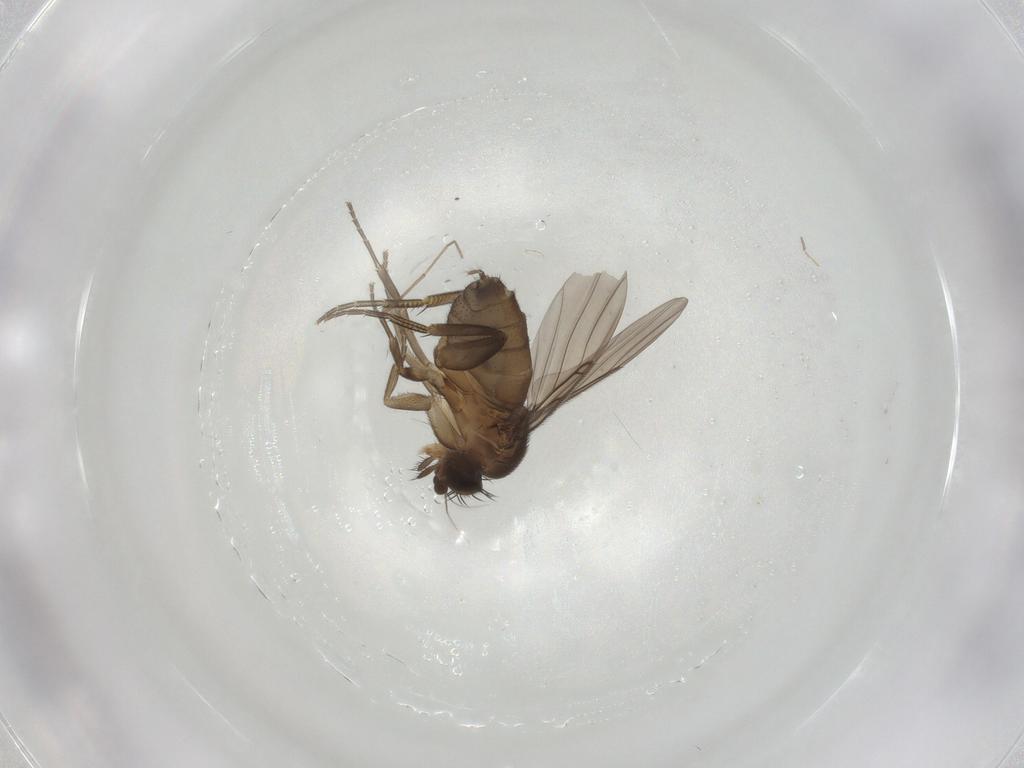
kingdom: Animalia
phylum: Arthropoda
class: Insecta
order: Diptera
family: Phoridae
